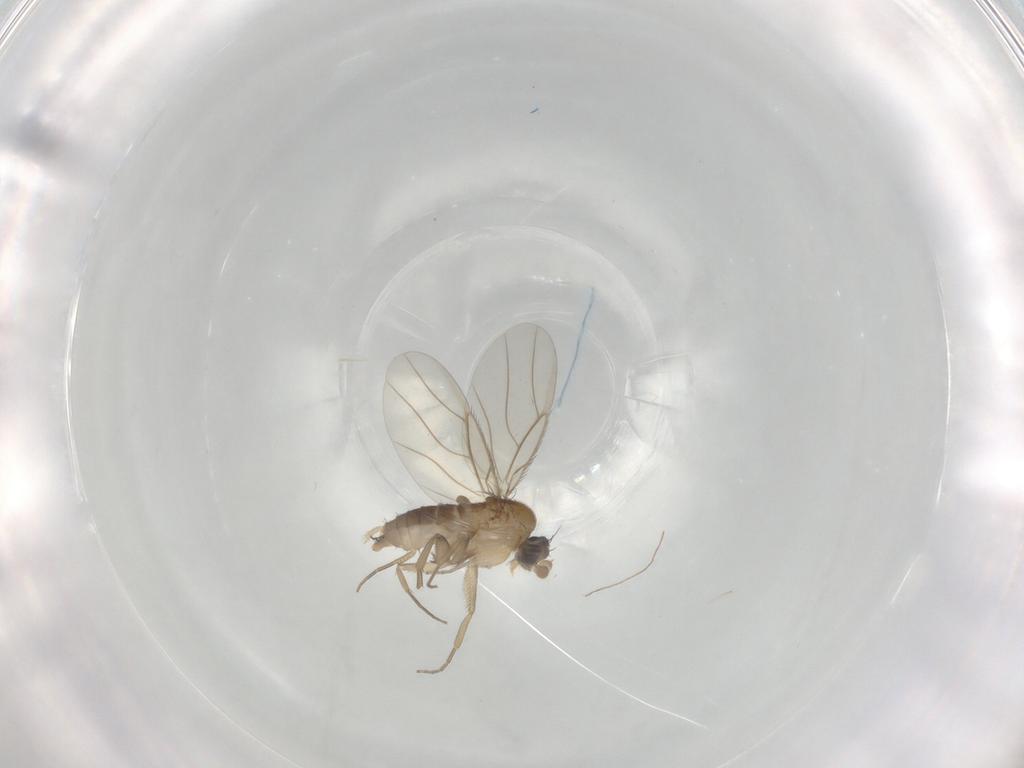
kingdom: Animalia
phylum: Arthropoda
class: Insecta
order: Diptera
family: Phoridae
